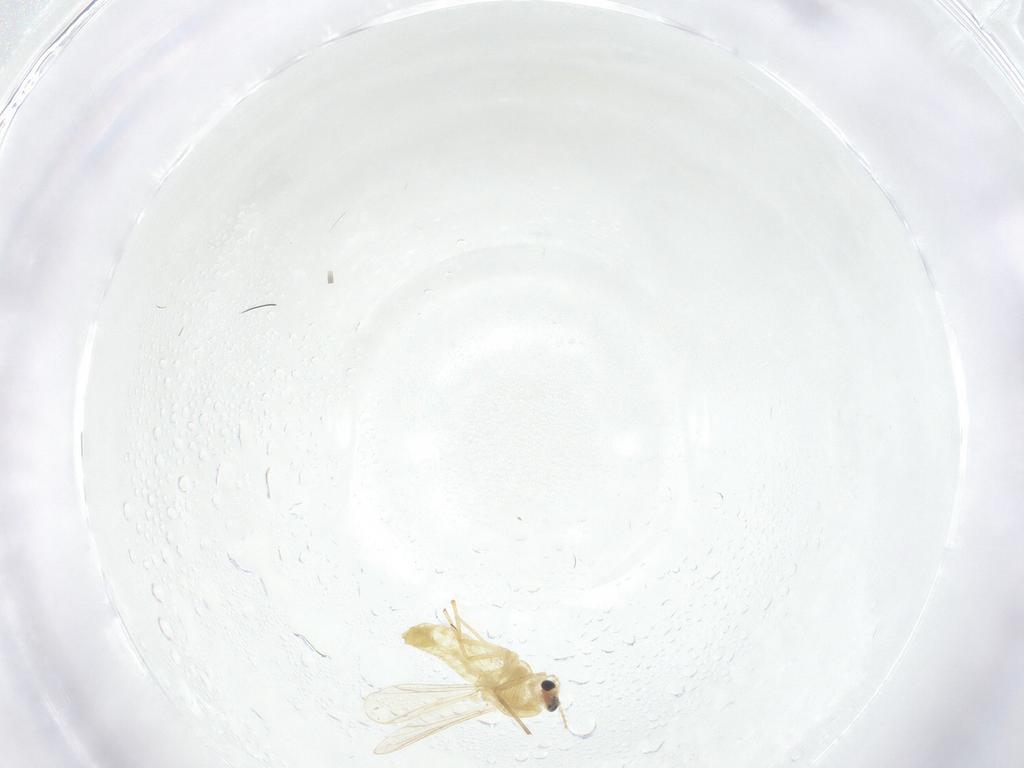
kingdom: Animalia
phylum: Arthropoda
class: Insecta
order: Diptera
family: Chironomidae
